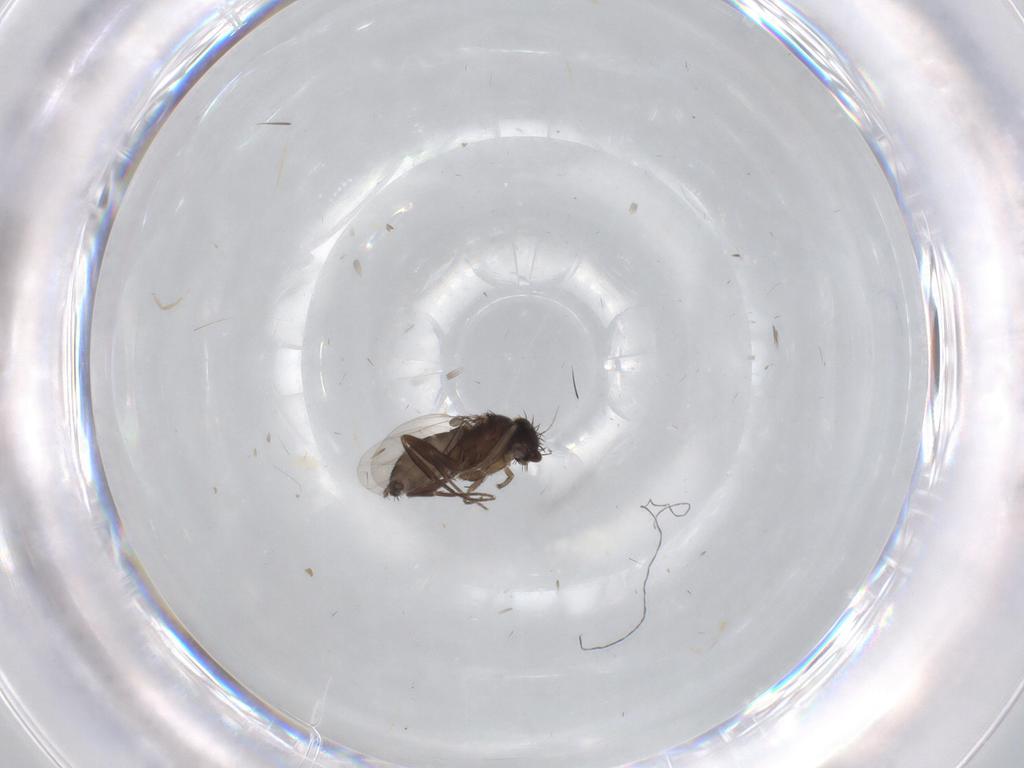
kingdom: Animalia
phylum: Arthropoda
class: Insecta
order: Diptera
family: Phoridae
